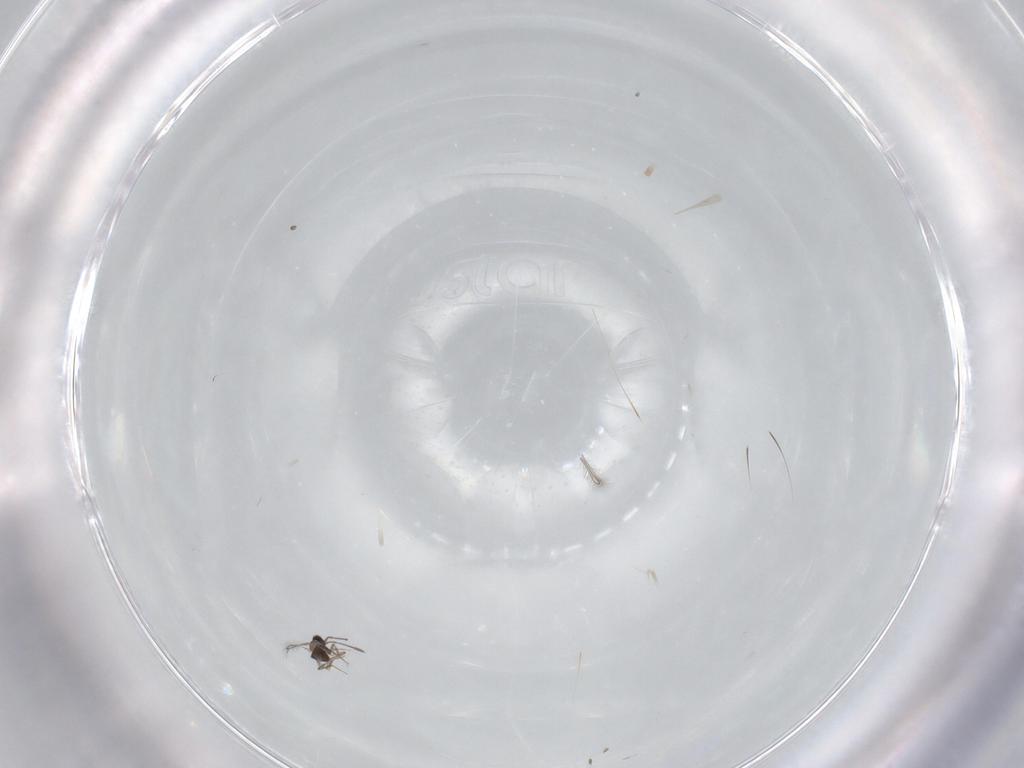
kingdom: Animalia
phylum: Arthropoda
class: Insecta
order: Diptera
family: Sciaridae
